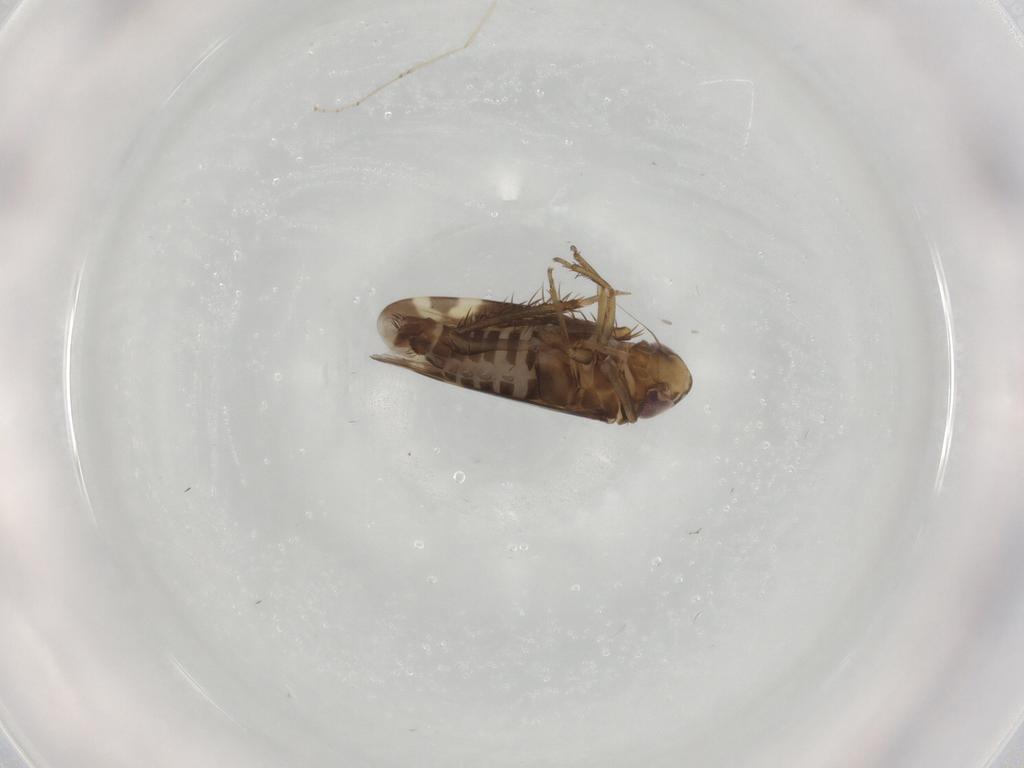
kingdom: Animalia
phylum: Arthropoda
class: Insecta
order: Hemiptera
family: Cicadellidae
